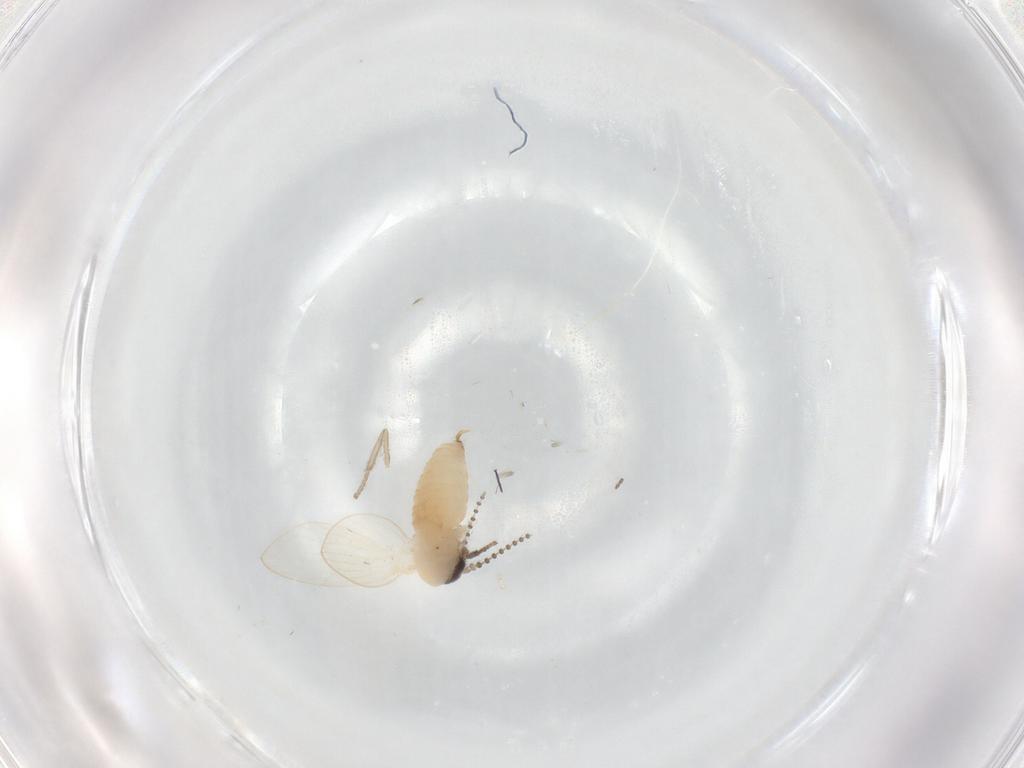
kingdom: Animalia
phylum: Arthropoda
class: Insecta
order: Diptera
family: Psychodidae
